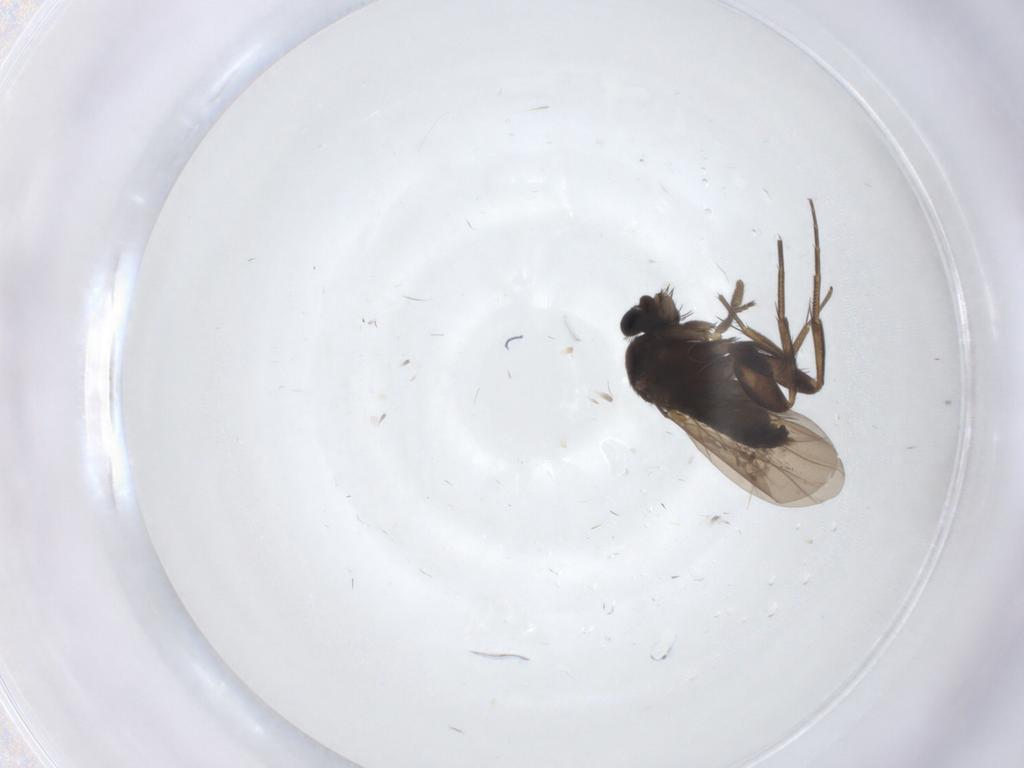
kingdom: Animalia
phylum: Arthropoda
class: Insecta
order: Diptera
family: Phoridae
